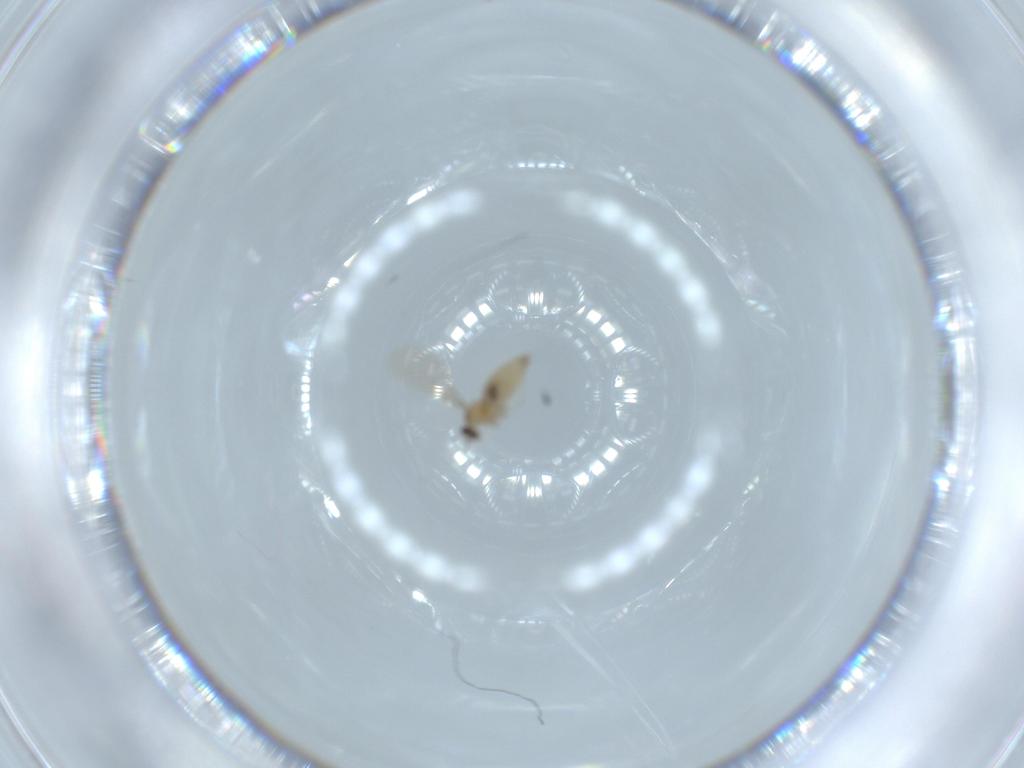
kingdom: Animalia
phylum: Arthropoda
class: Insecta
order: Diptera
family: Cecidomyiidae
